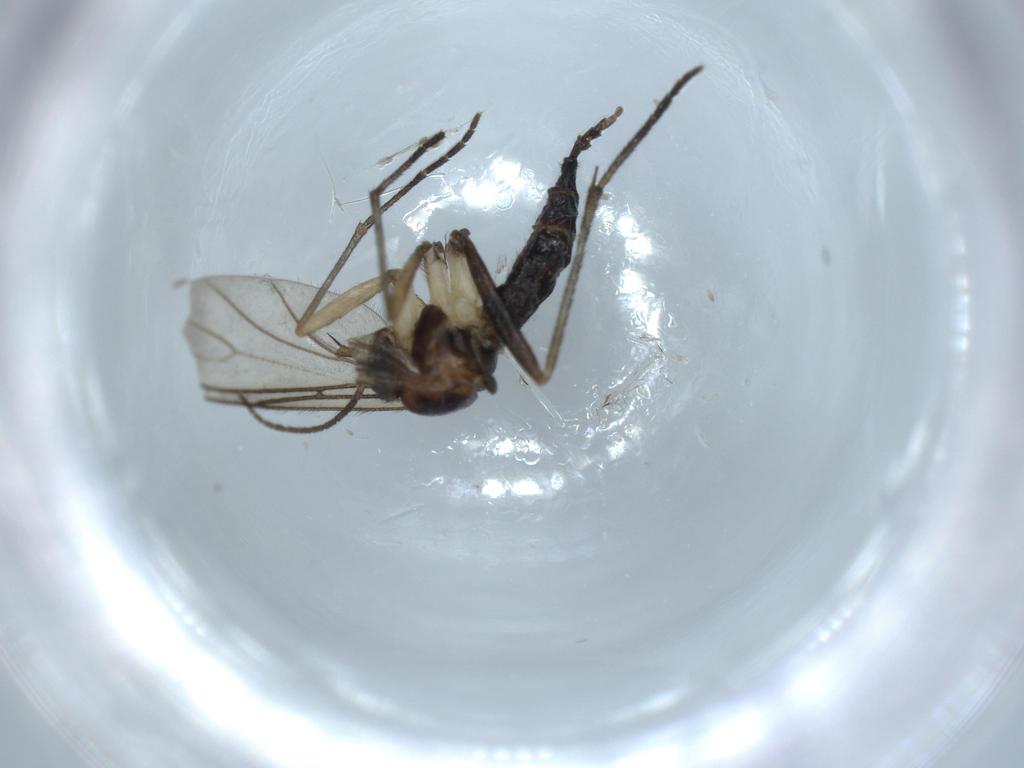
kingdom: Animalia
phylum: Arthropoda
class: Insecta
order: Diptera
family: Sciaridae
